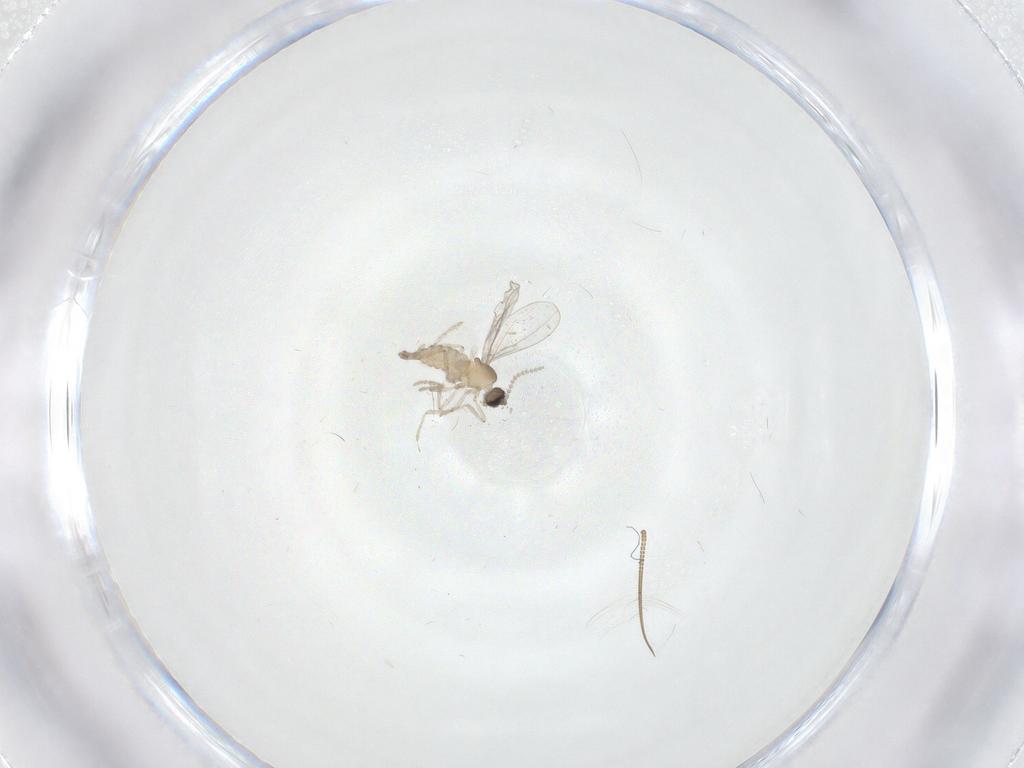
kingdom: Animalia
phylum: Arthropoda
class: Insecta
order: Diptera
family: Cecidomyiidae
